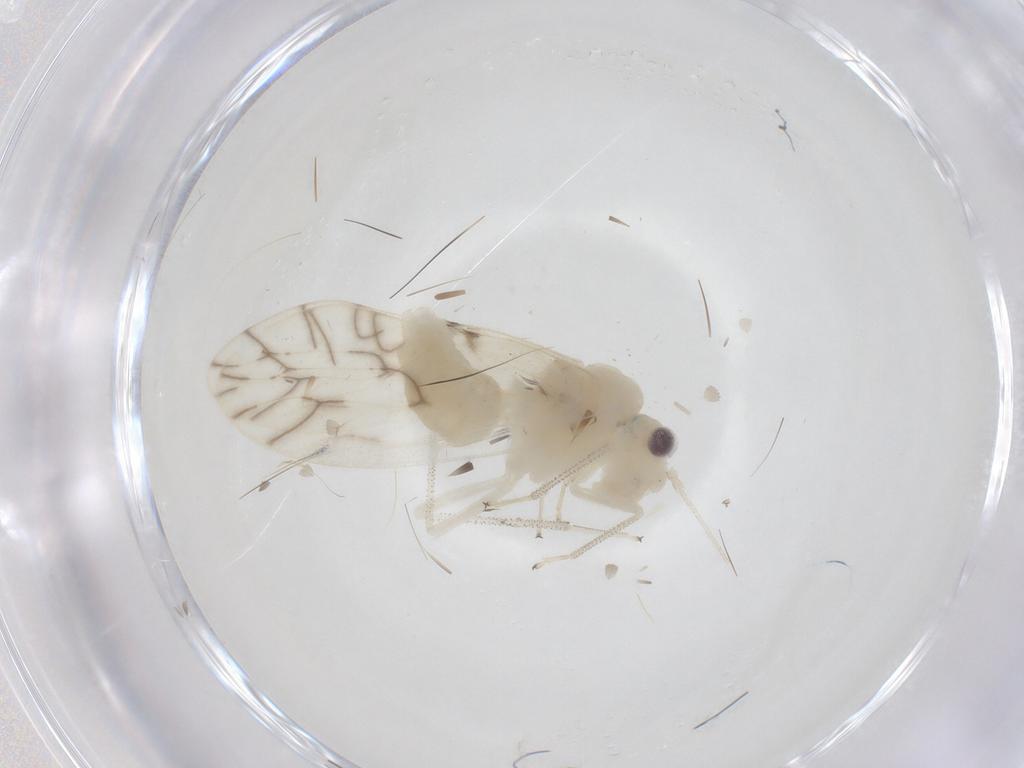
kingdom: Animalia
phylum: Arthropoda
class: Insecta
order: Psocodea
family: Caeciliusidae
